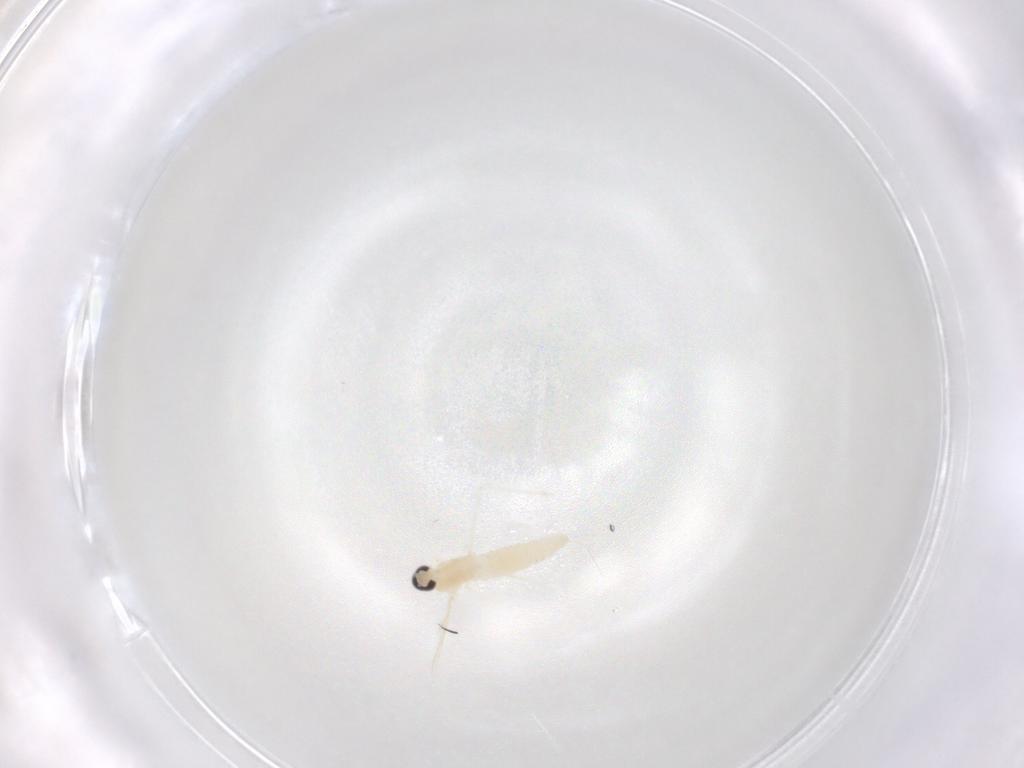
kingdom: Animalia
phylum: Arthropoda
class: Insecta
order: Diptera
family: Cecidomyiidae
